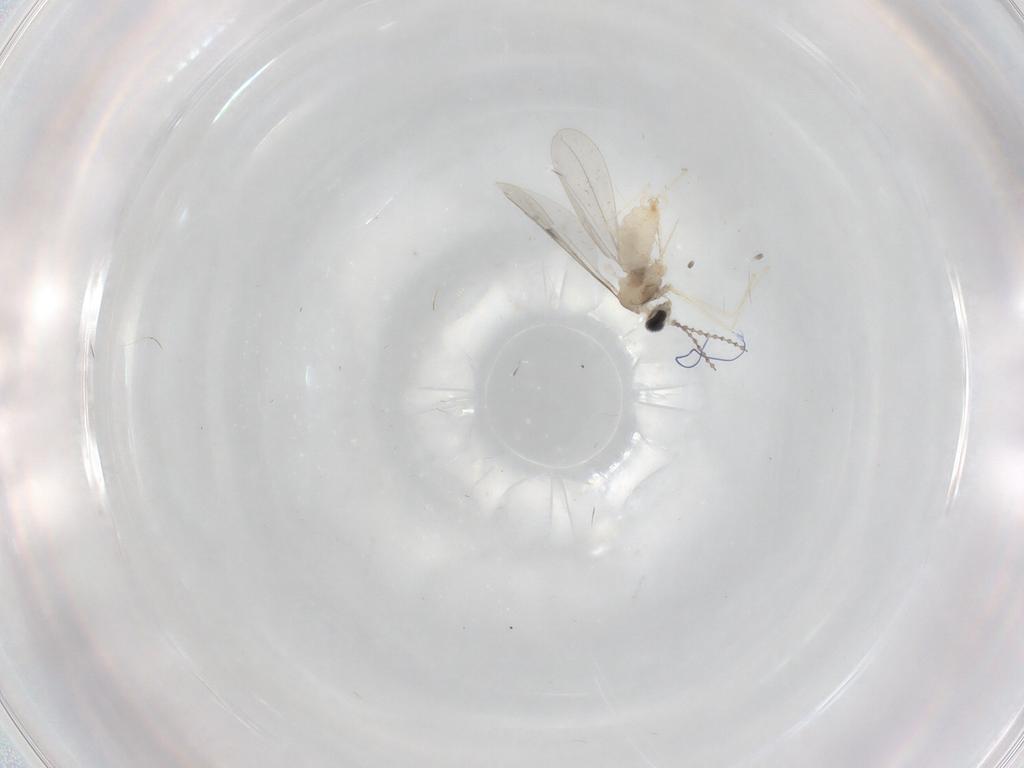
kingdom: Animalia
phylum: Arthropoda
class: Insecta
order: Diptera
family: Cecidomyiidae
